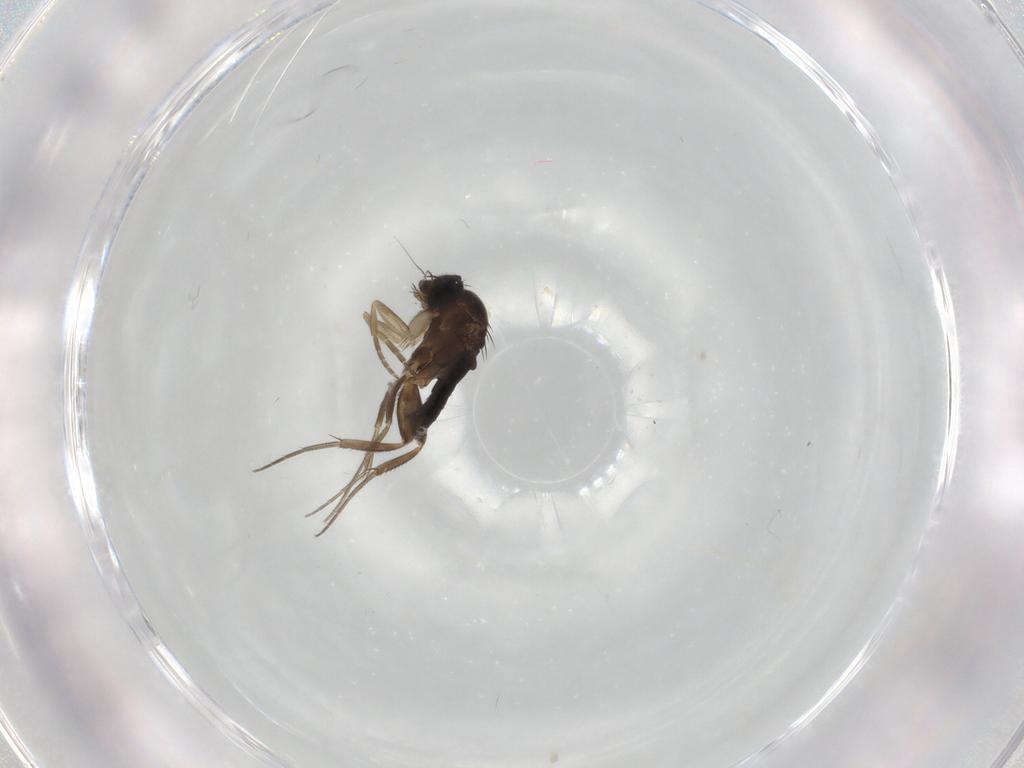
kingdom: Animalia
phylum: Arthropoda
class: Insecta
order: Diptera
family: Phoridae
